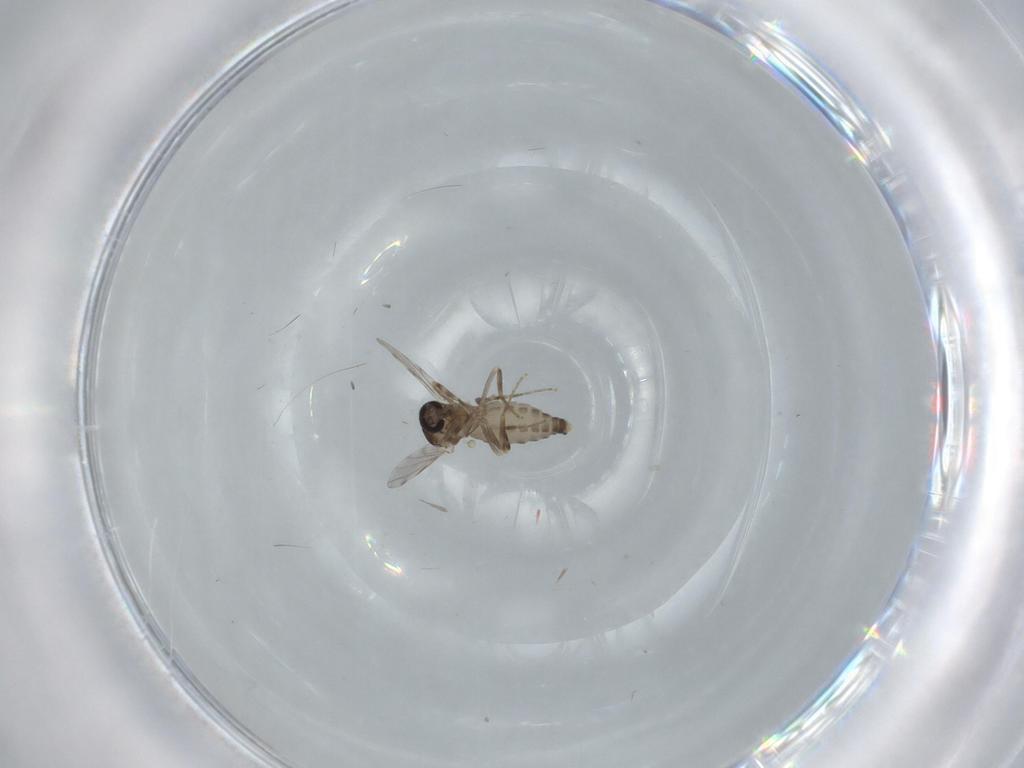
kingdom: Animalia
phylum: Arthropoda
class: Insecta
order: Diptera
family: Ceratopogonidae
